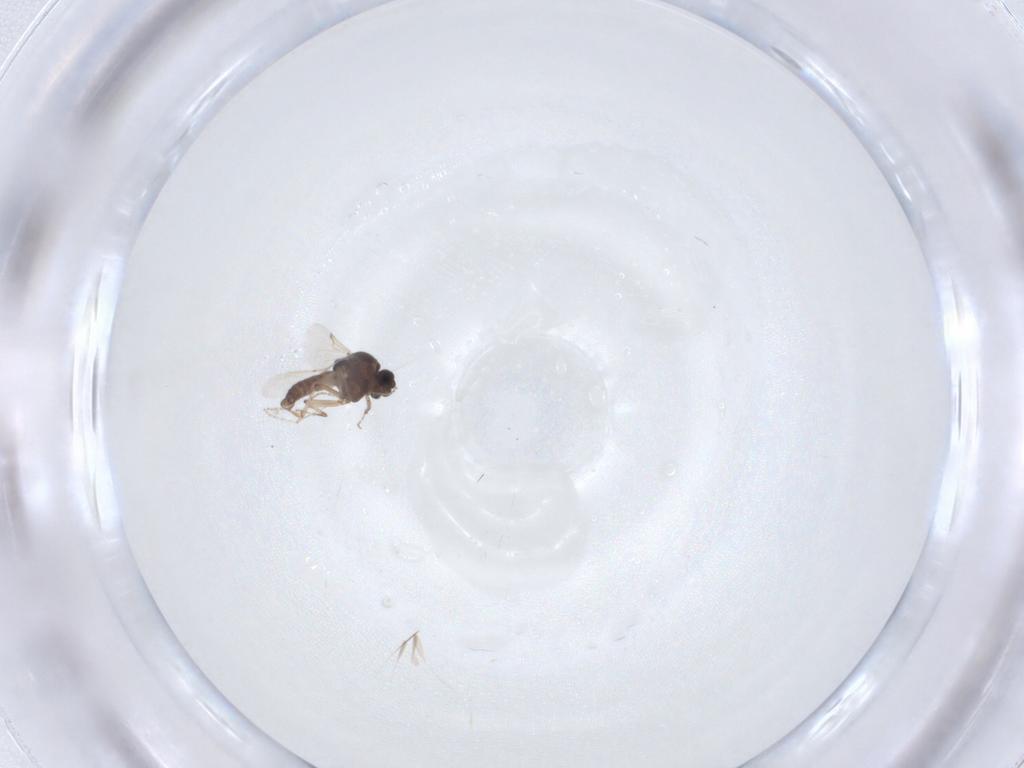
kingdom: Animalia
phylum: Arthropoda
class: Insecta
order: Diptera
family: Ceratopogonidae
